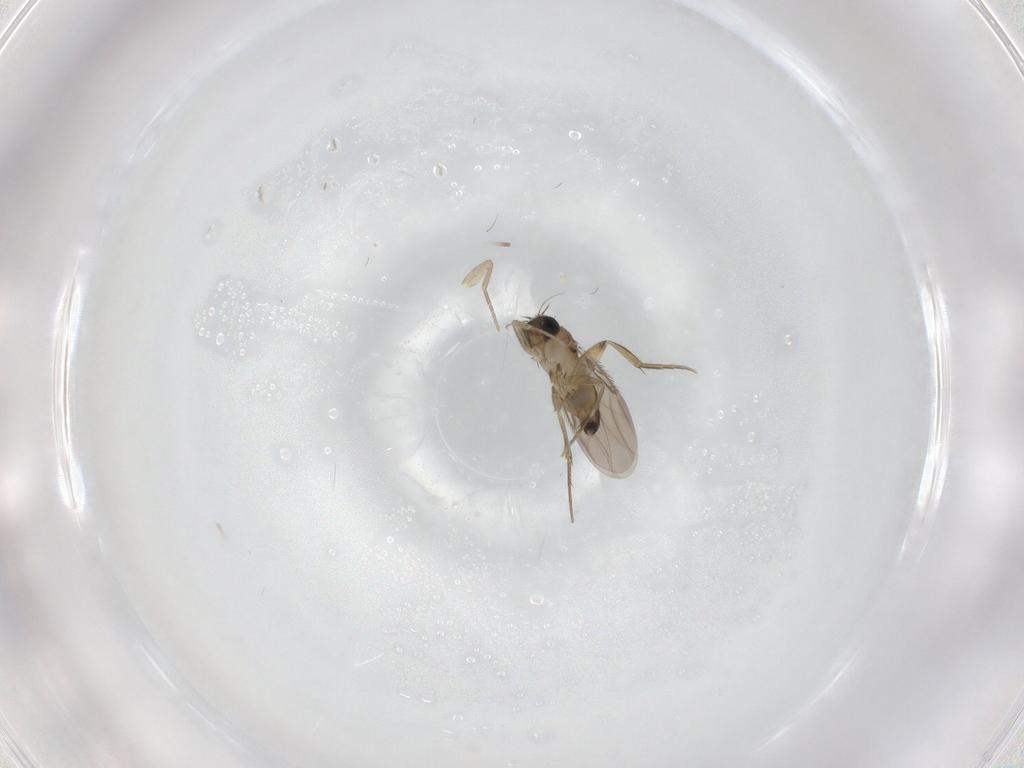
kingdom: Animalia
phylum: Arthropoda
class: Insecta
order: Diptera
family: Phoridae
